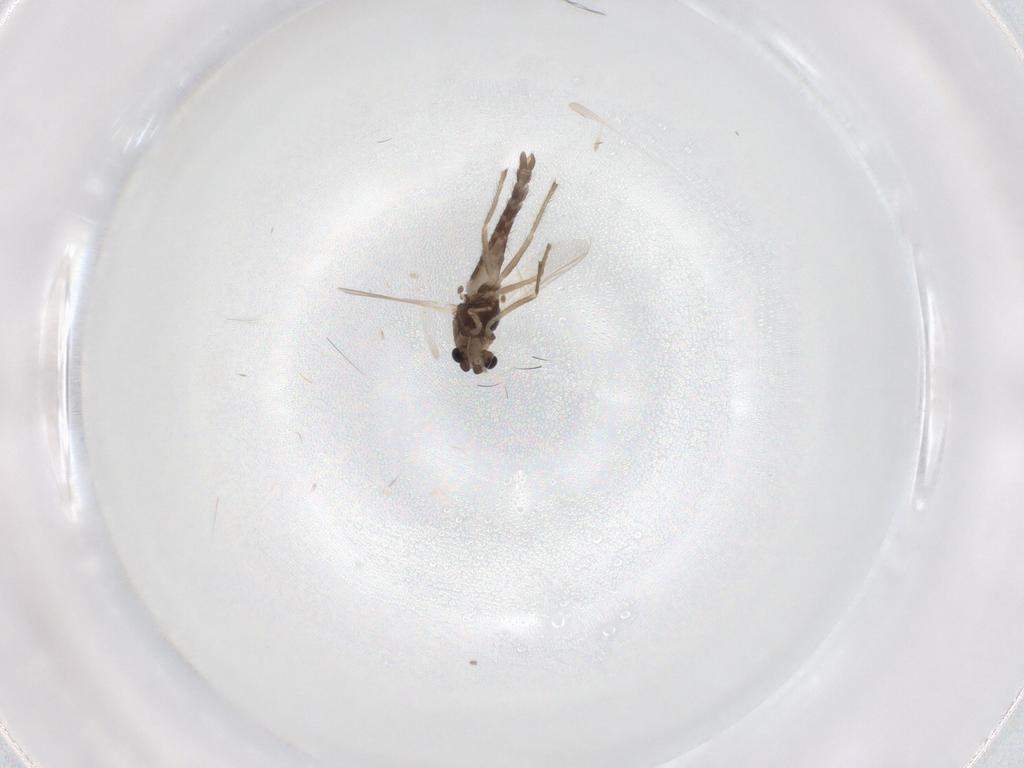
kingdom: Animalia
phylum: Arthropoda
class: Insecta
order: Diptera
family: Chironomidae
